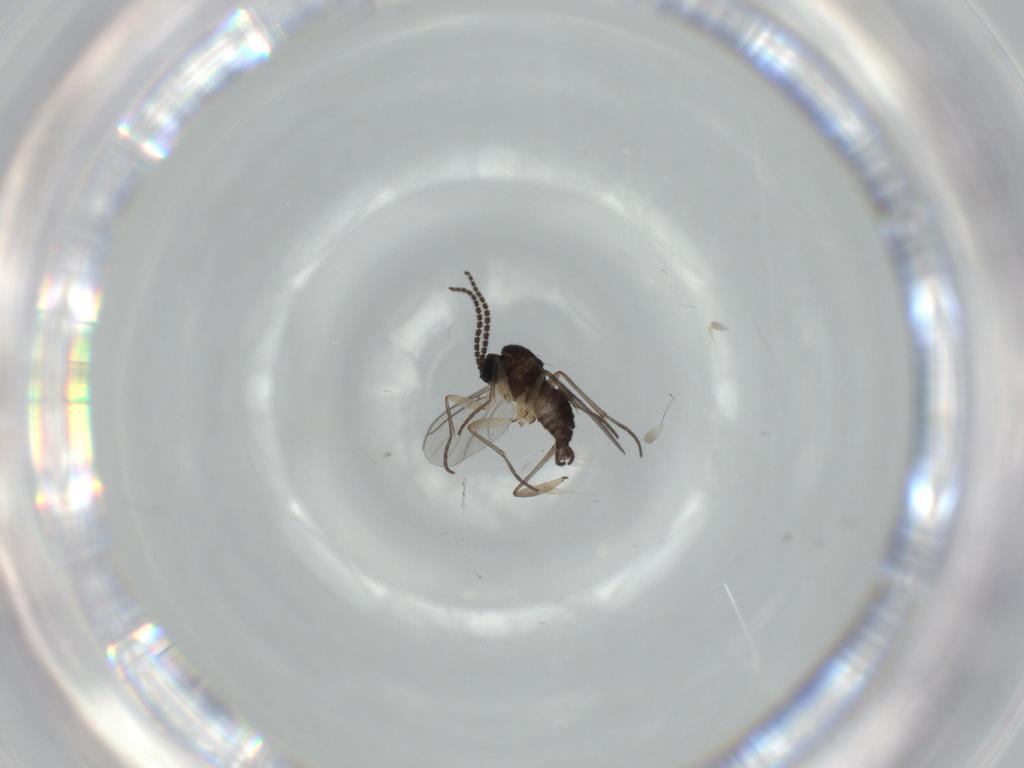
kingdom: Animalia
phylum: Arthropoda
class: Insecta
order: Diptera
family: Sciaridae
